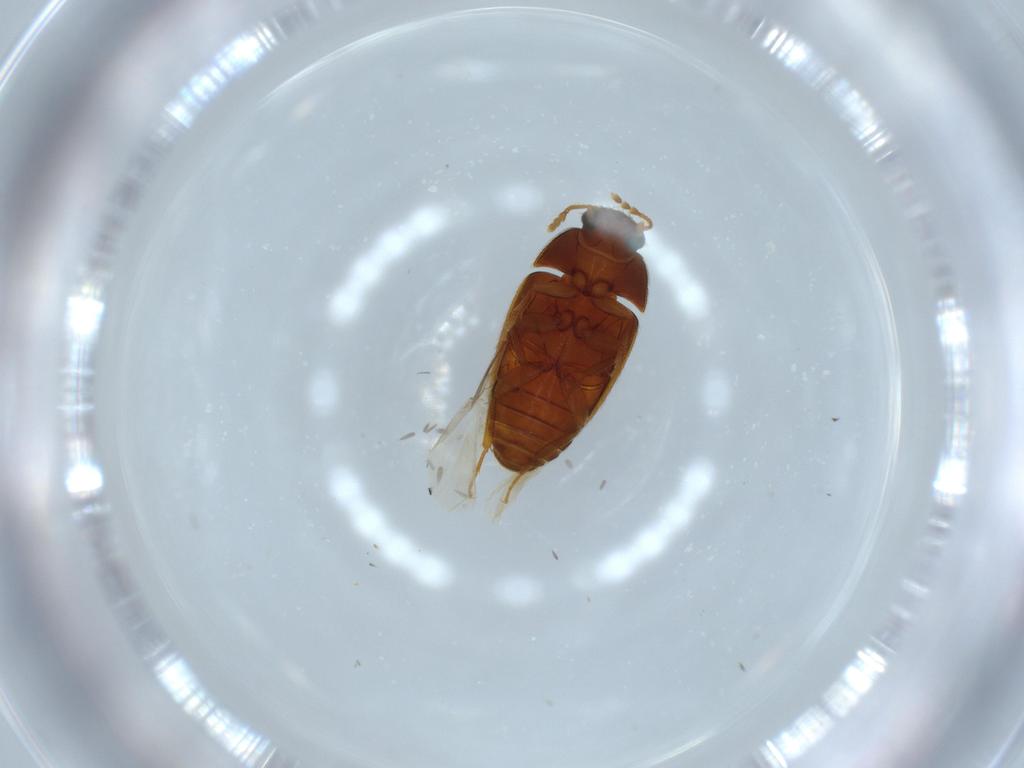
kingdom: Animalia
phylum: Arthropoda
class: Insecta
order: Coleoptera
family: Mycetophagidae
